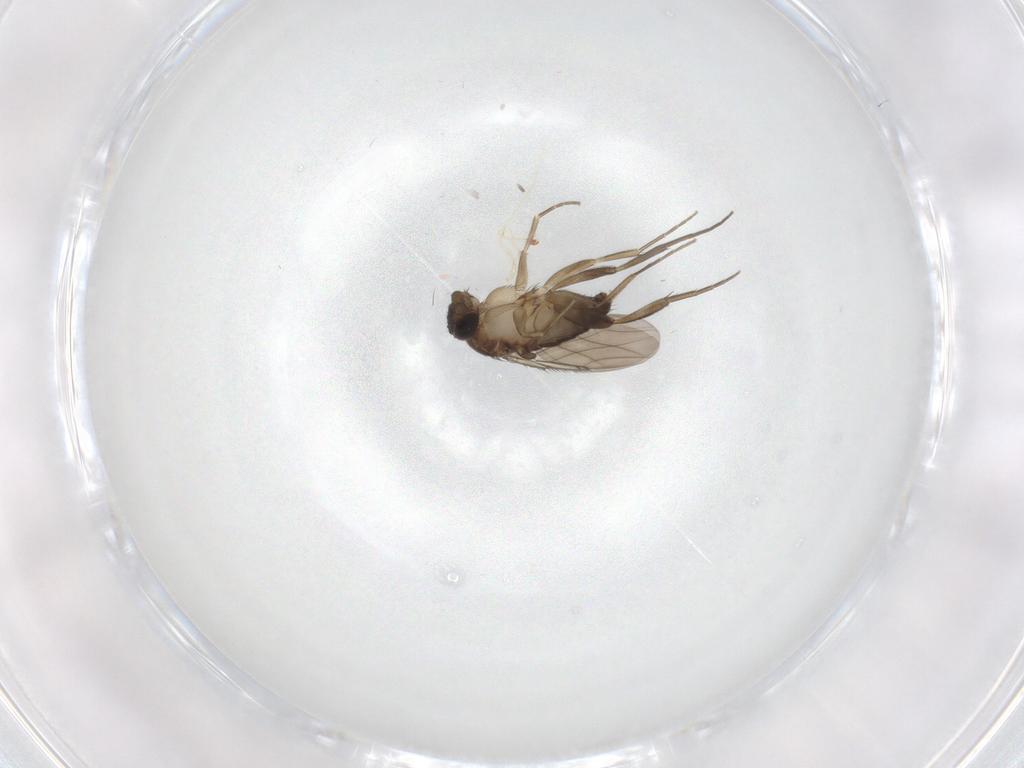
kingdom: Animalia
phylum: Arthropoda
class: Insecta
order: Diptera
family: Phoridae
